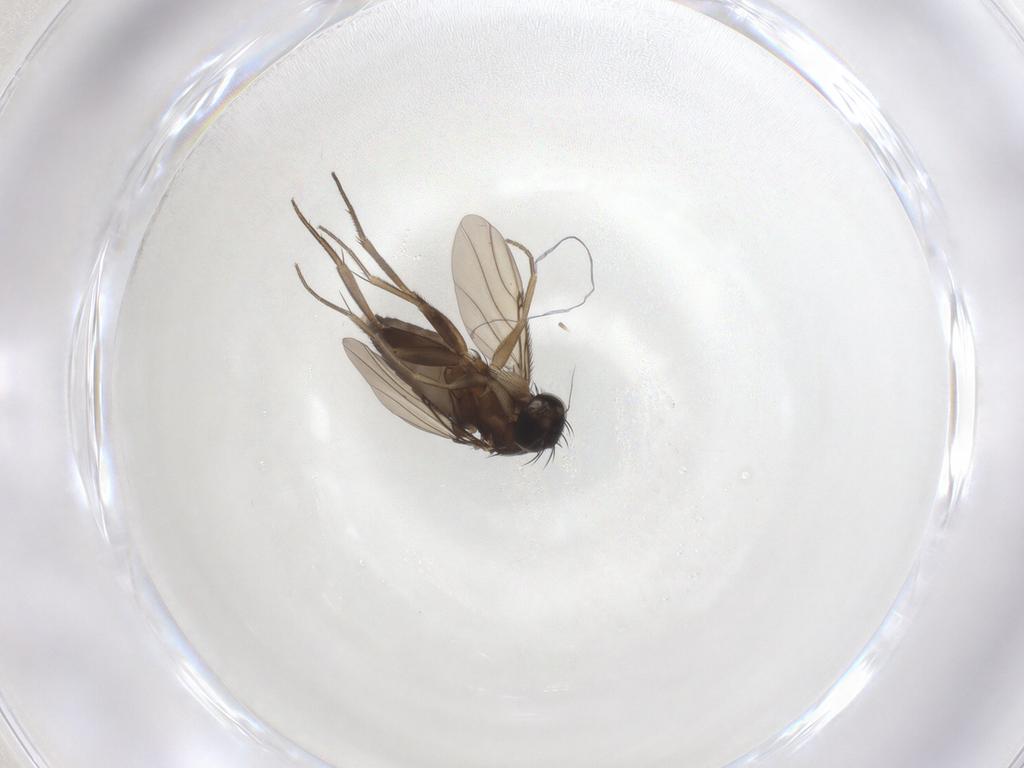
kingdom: Animalia
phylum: Arthropoda
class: Insecta
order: Diptera
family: Phoridae
